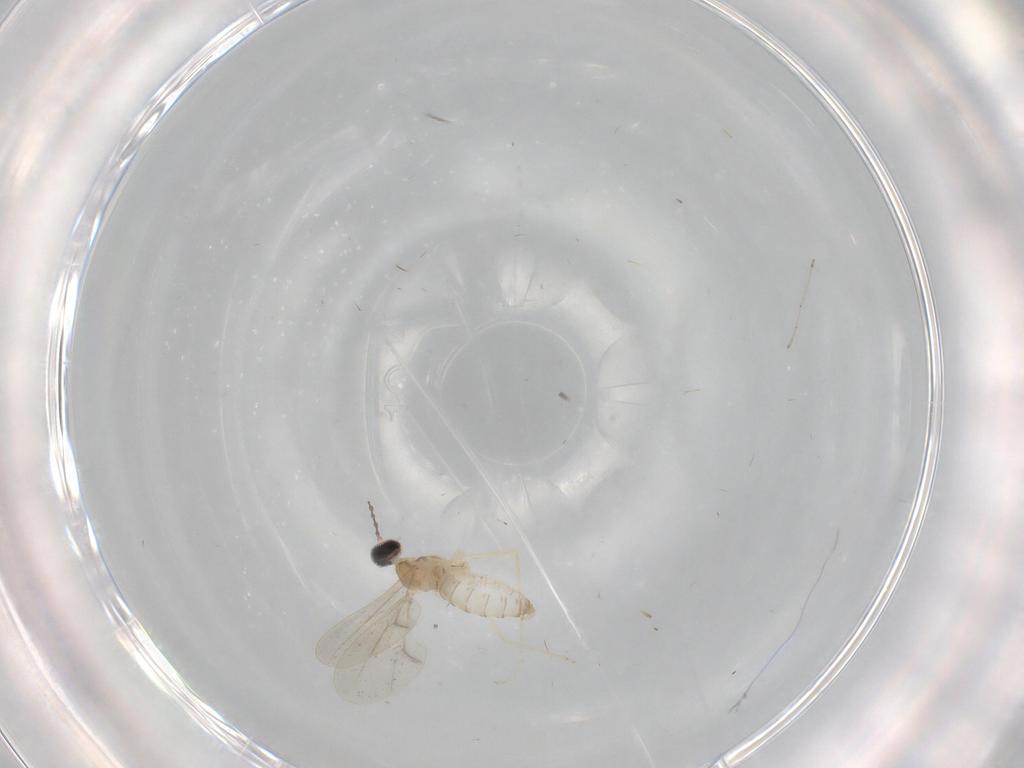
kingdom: Animalia
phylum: Arthropoda
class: Insecta
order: Diptera
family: Cecidomyiidae
